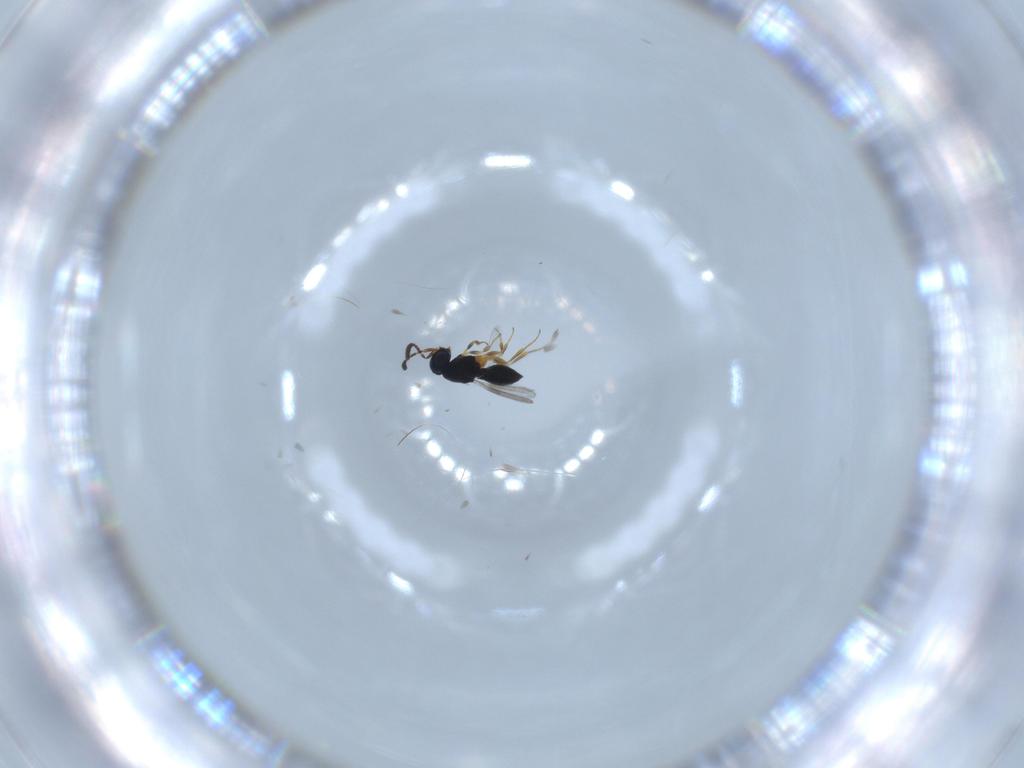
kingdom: Animalia
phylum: Arthropoda
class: Insecta
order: Hymenoptera
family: Scelionidae
